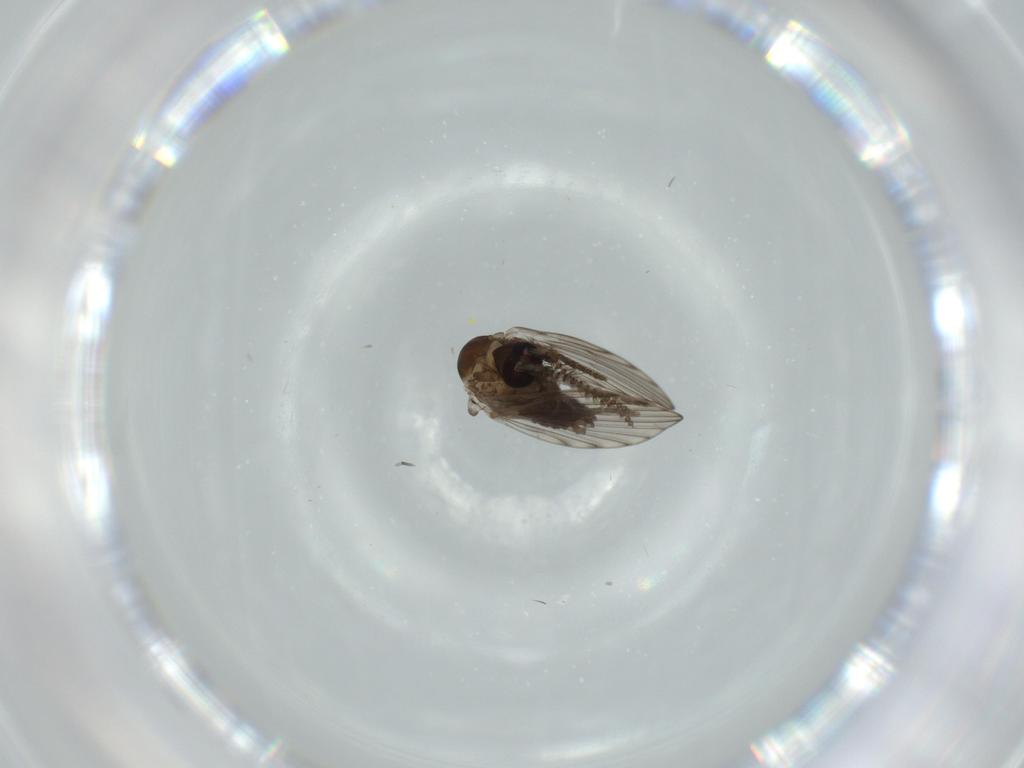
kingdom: Animalia
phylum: Arthropoda
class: Insecta
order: Diptera
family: Psychodidae
